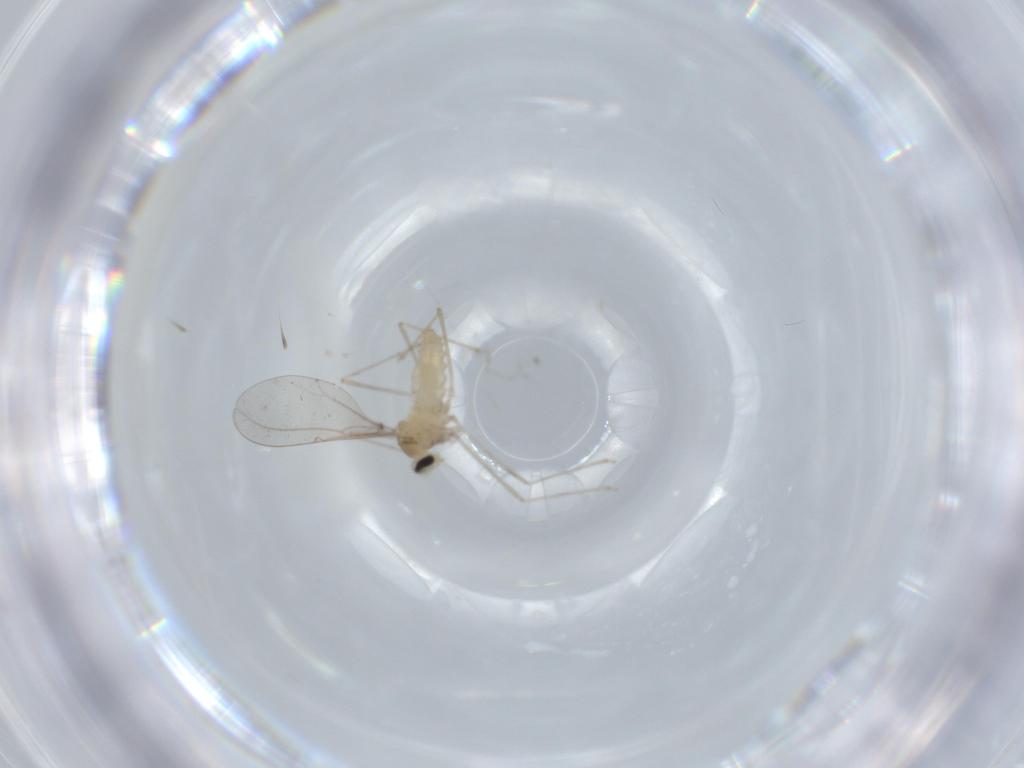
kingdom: Animalia
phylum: Arthropoda
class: Insecta
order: Diptera
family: Cecidomyiidae
